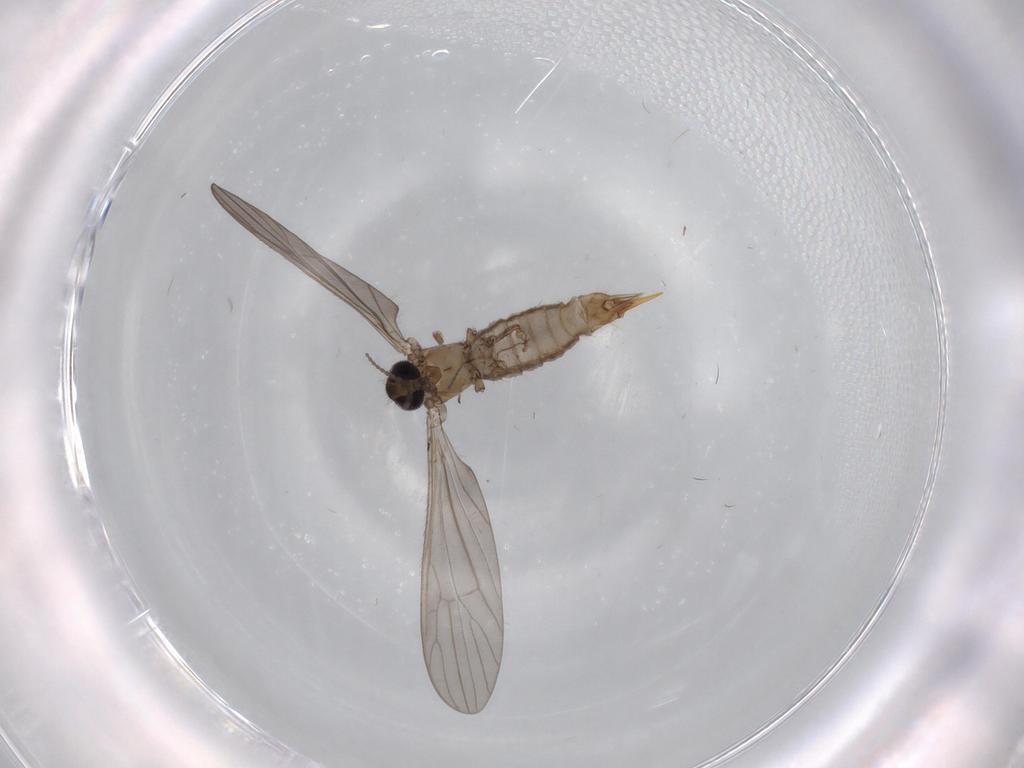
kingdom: Animalia
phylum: Arthropoda
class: Insecta
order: Diptera
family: Limoniidae
